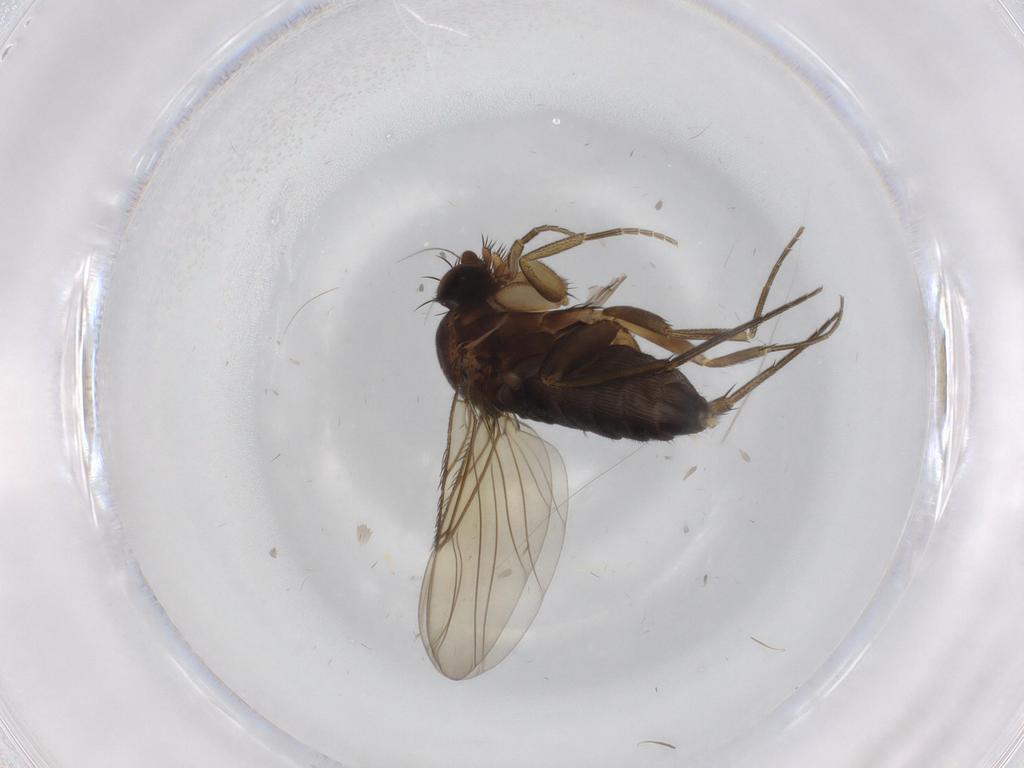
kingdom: Animalia
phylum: Arthropoda
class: Insecta
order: Diptera
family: Phoridae
